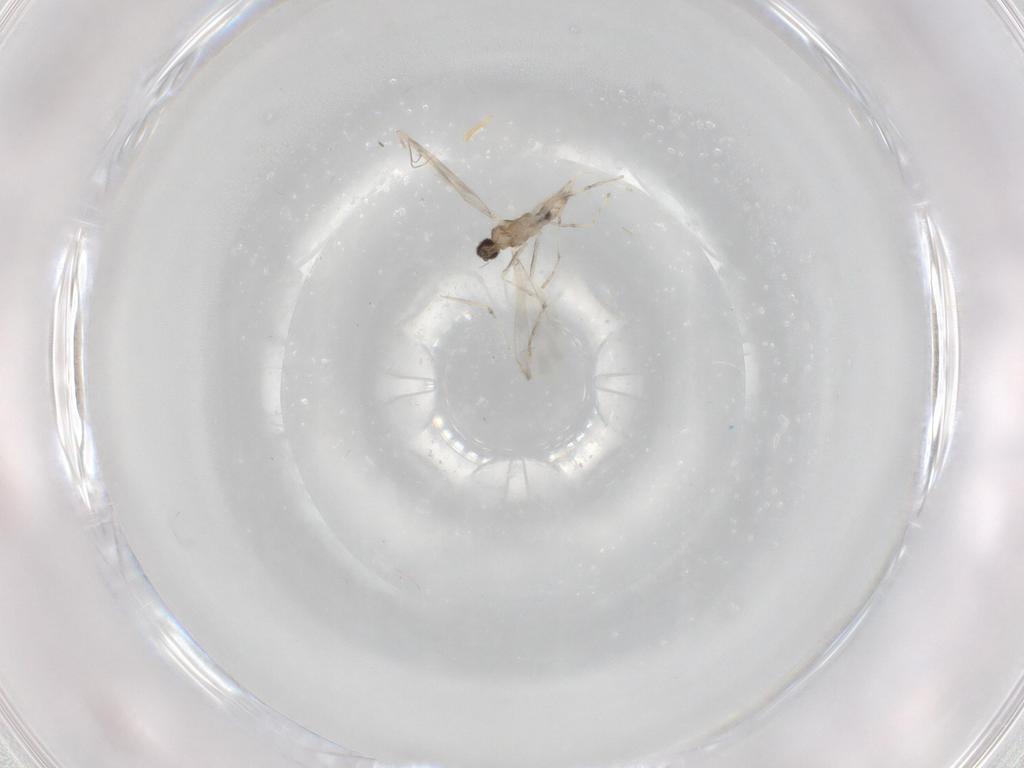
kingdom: Animalia
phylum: Arthropoda
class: Insecta
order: Diptera
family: Cecidomyiidae
